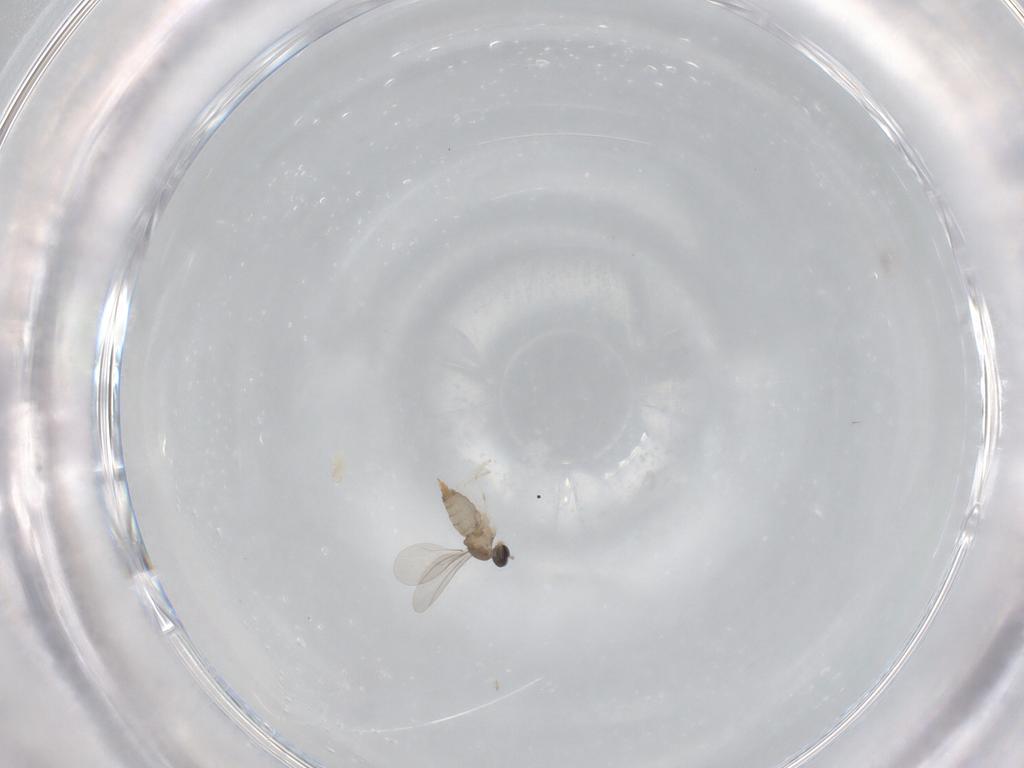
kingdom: Animalia
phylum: Arthropoda
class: Insecta
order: Diptera
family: Cecidomyiidae
